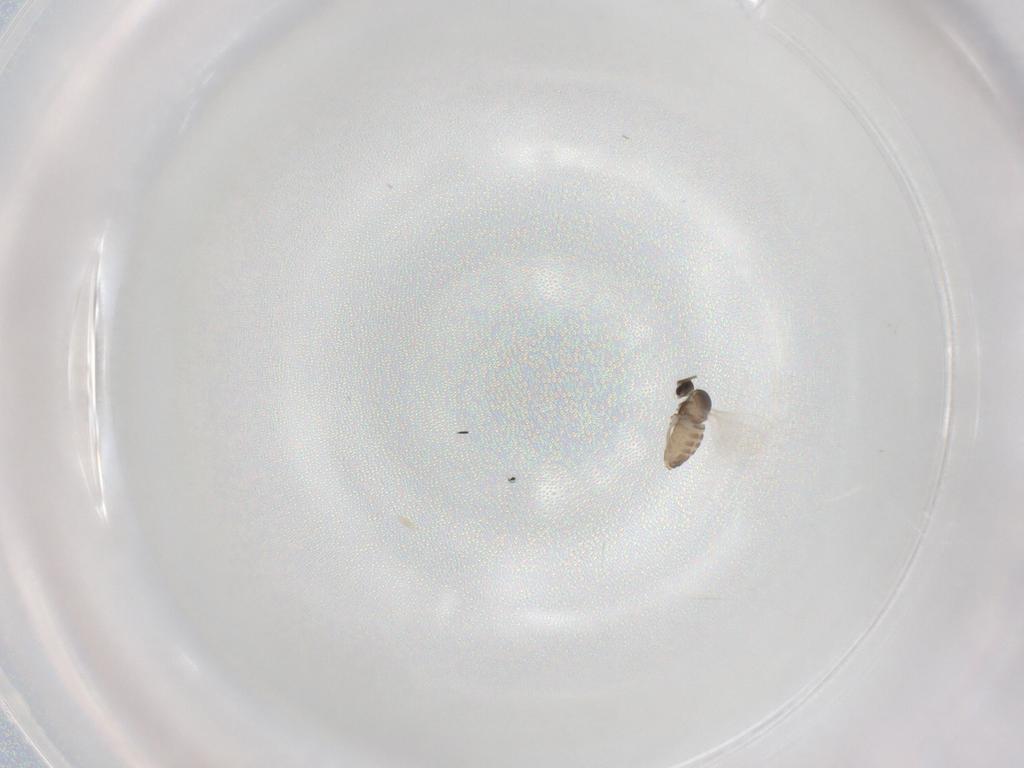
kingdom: Animalia
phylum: Arthropoda
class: Insecta
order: Diptera
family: Cecidomyiidae
